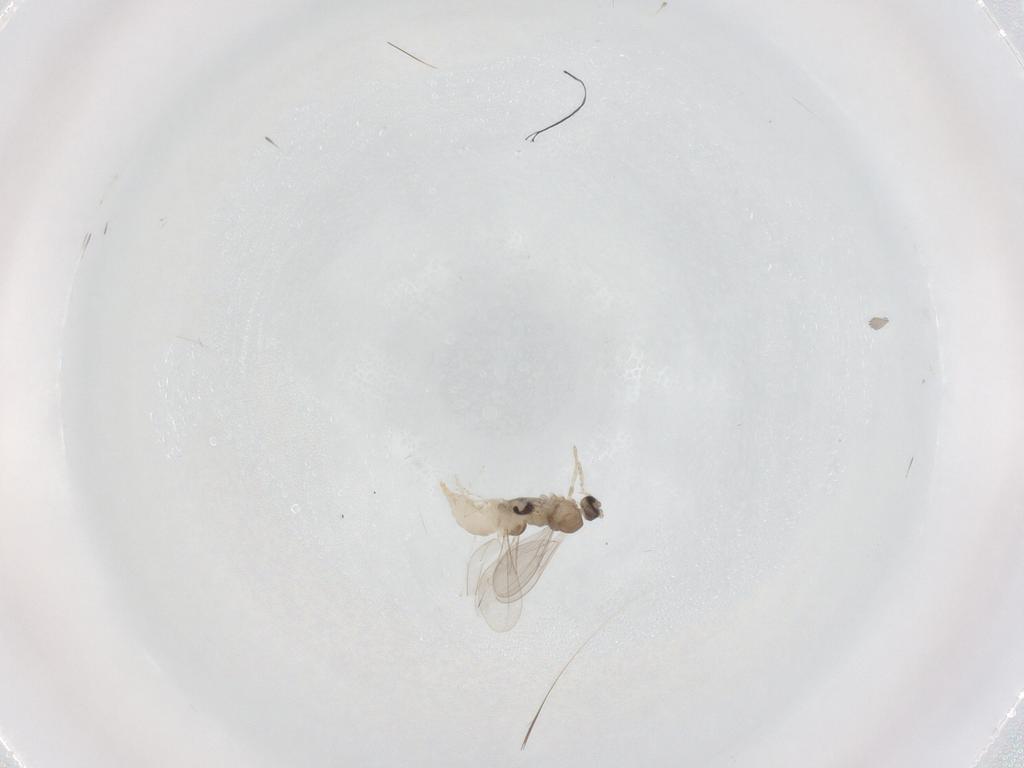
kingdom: Animalia
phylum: Arthropoda
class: Insecta
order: Diptera
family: Cecidomyiidae
